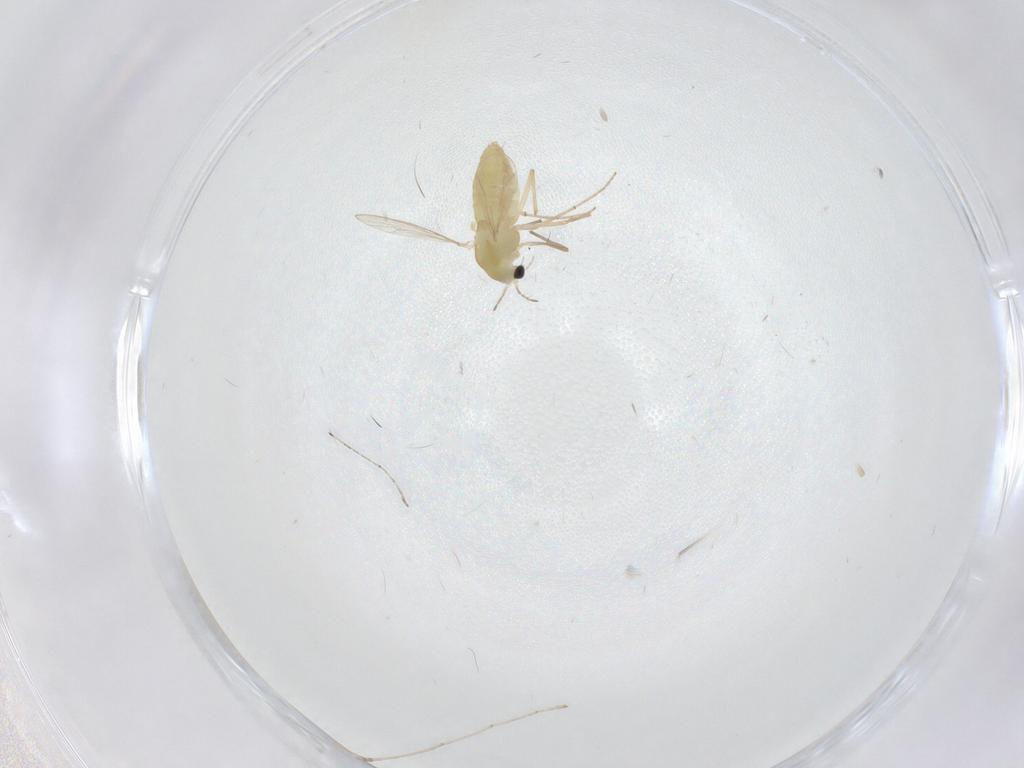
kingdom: Animalia
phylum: Arthropoda
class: Insecta
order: Diptera
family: Chironomidae
